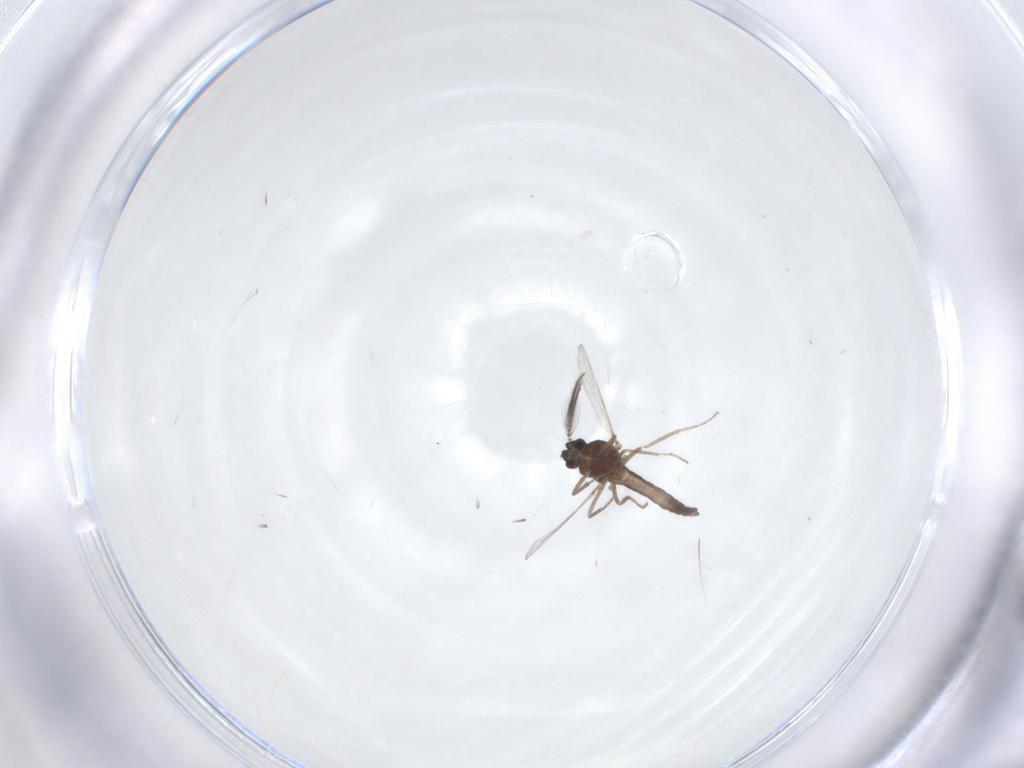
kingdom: Animalia
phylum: Arthropoda
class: Insecta
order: Diptera
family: Ceratopogonidae
